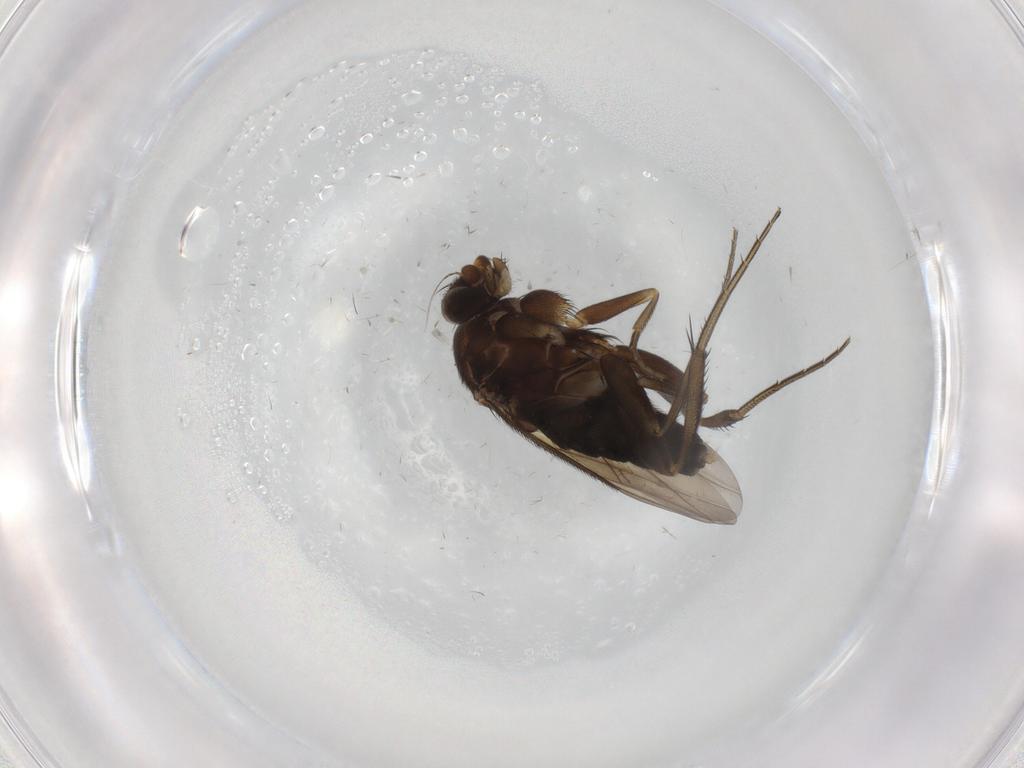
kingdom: Animalia
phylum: Arthropoda
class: Insecta
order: Diptera
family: Phoridae
